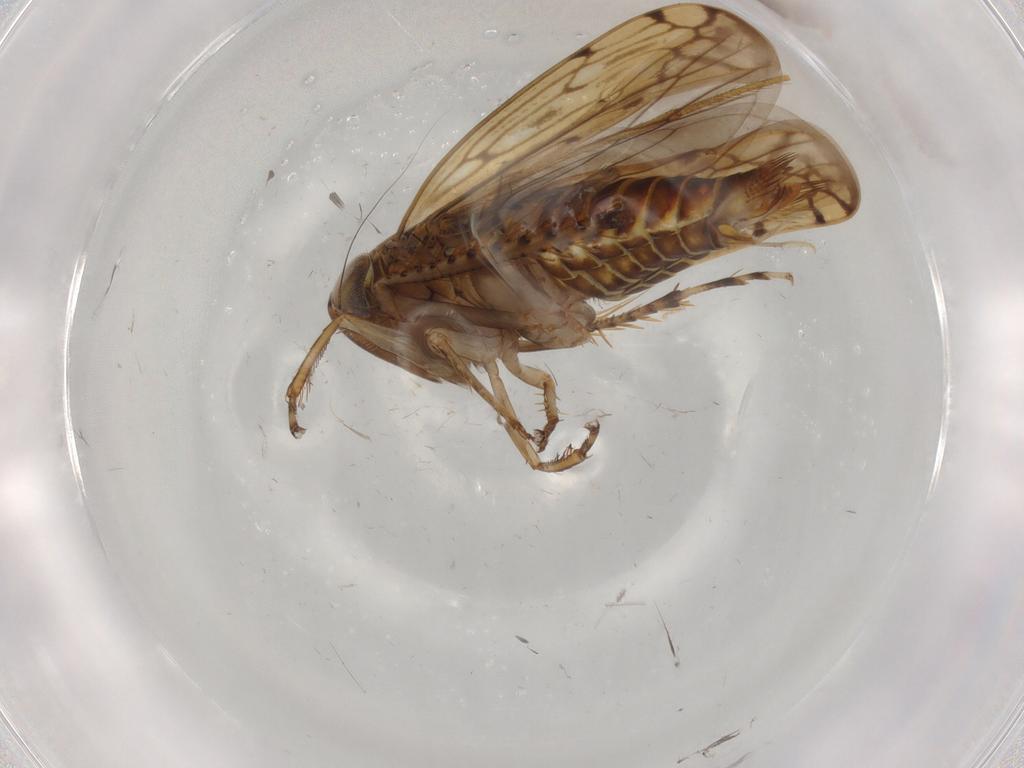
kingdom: Animalia
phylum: Arthropoda
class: Insecta
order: Hemiptera
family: Cicadellidae
